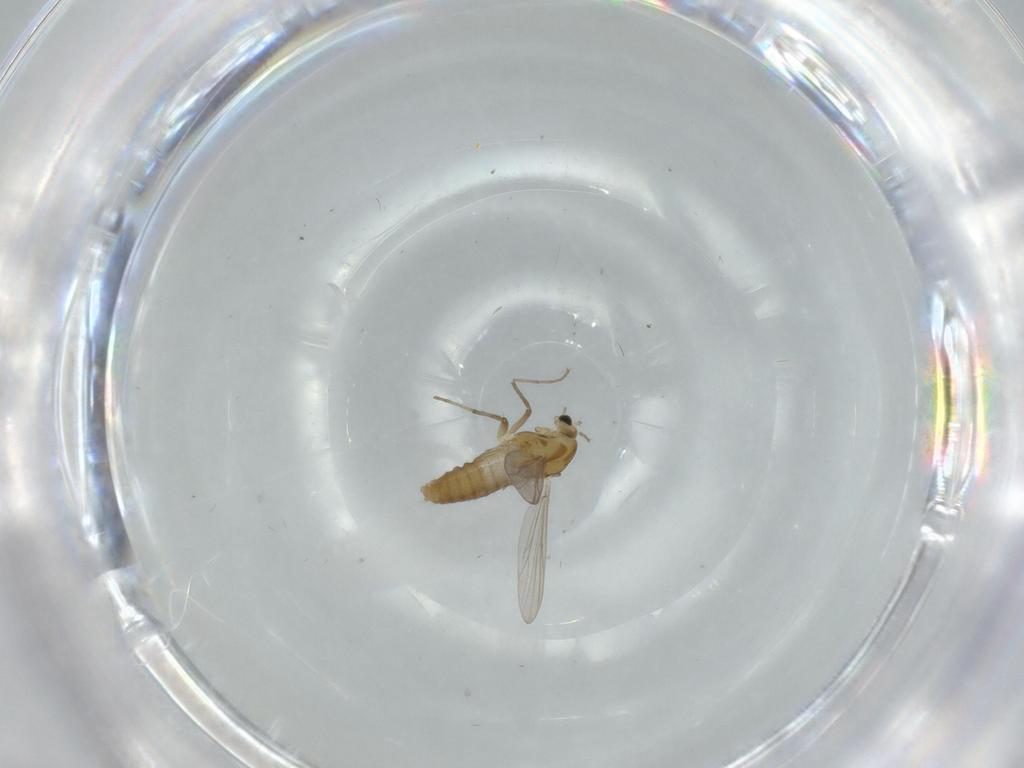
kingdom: Animalia
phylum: Arthropoda
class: Insecta
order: Diptera
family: Chironomidae
